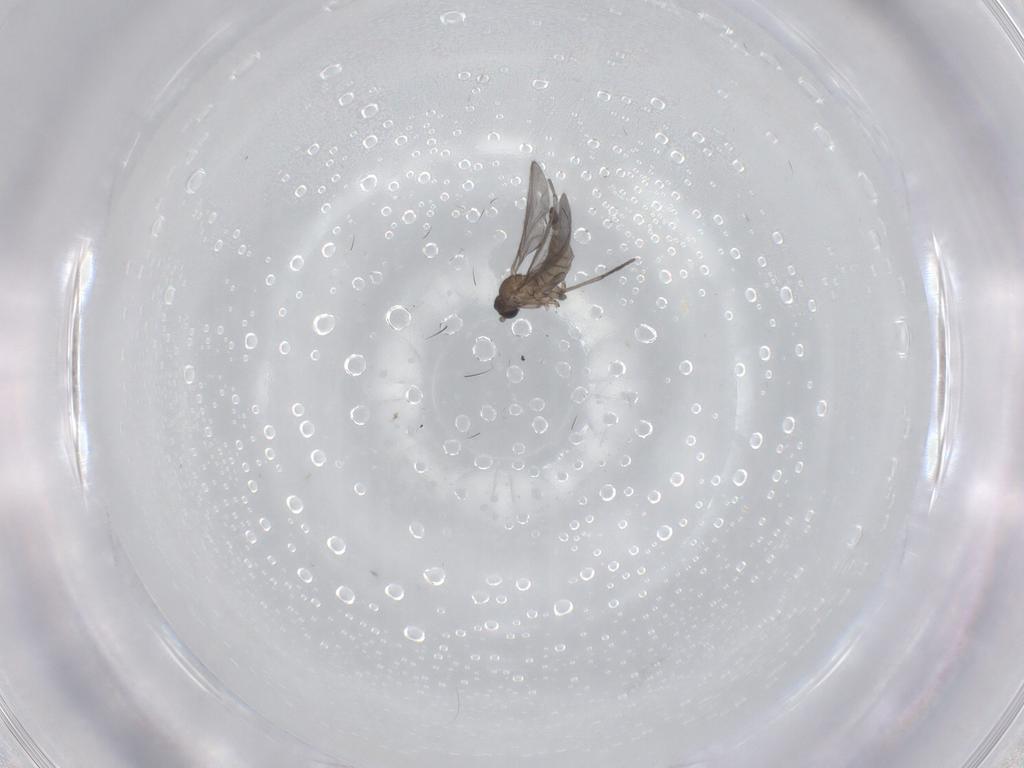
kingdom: Animalia
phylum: Arthropoda
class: Insecta
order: Diptera
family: Sciaridae
